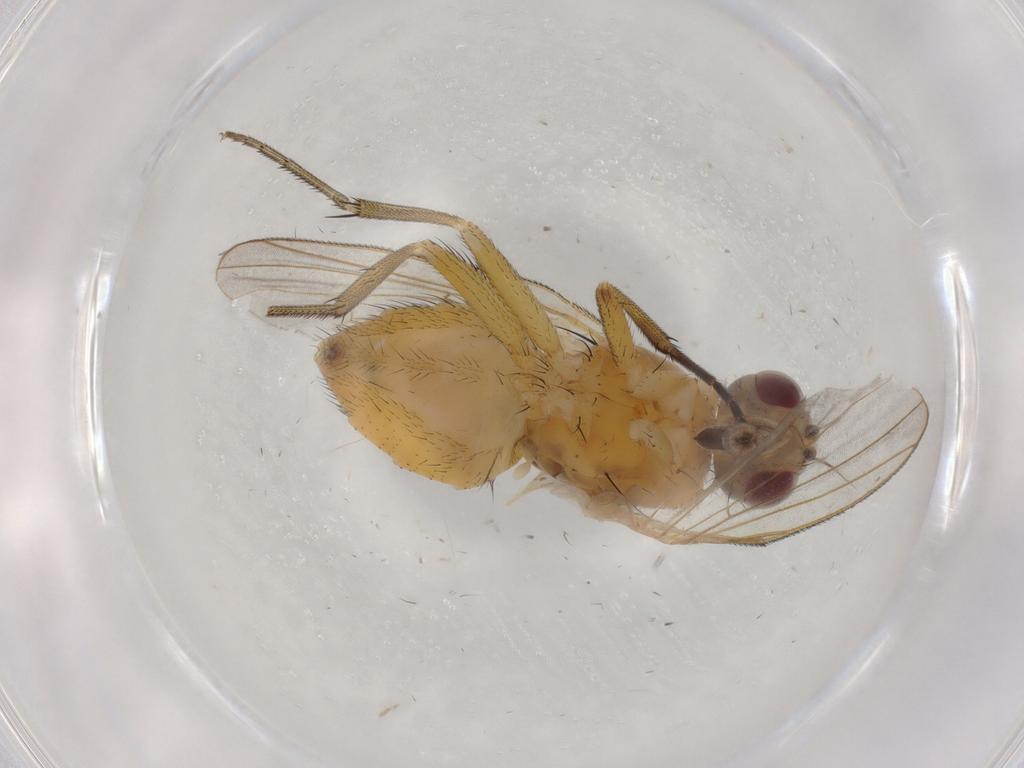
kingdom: Animalia
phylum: Arthropoda
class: Insecta
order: Diptera
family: Muscidae
